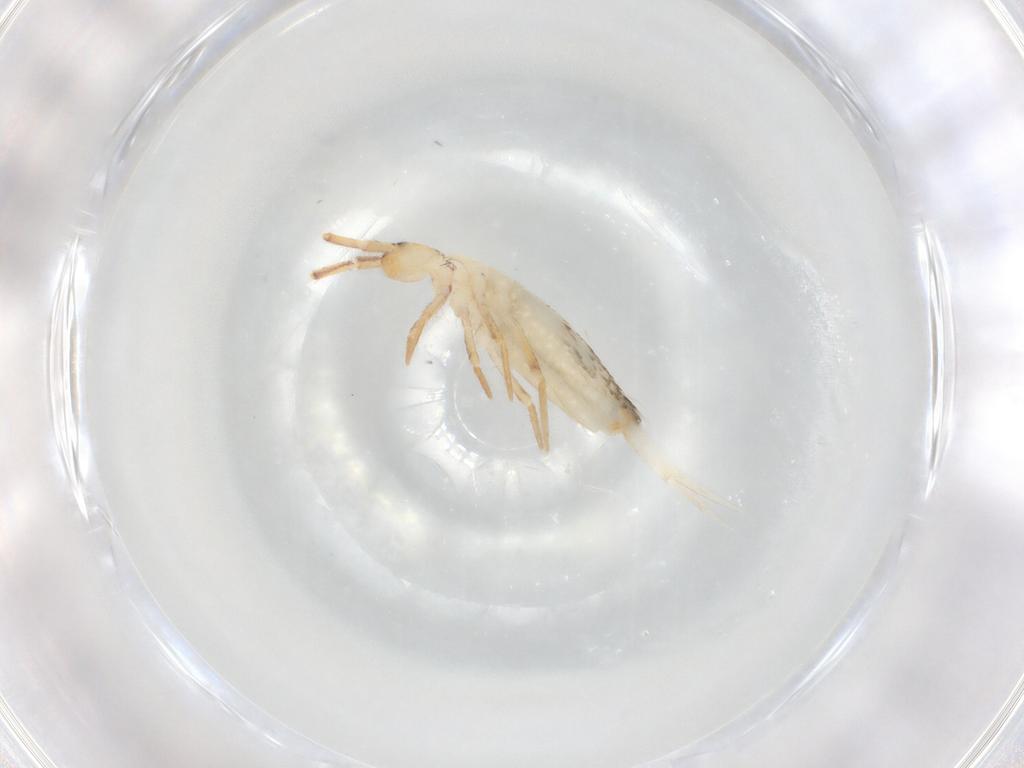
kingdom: Animalia
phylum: Arthropoda
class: Collembola
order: Entomobryomorpha
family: Entomobryidae
